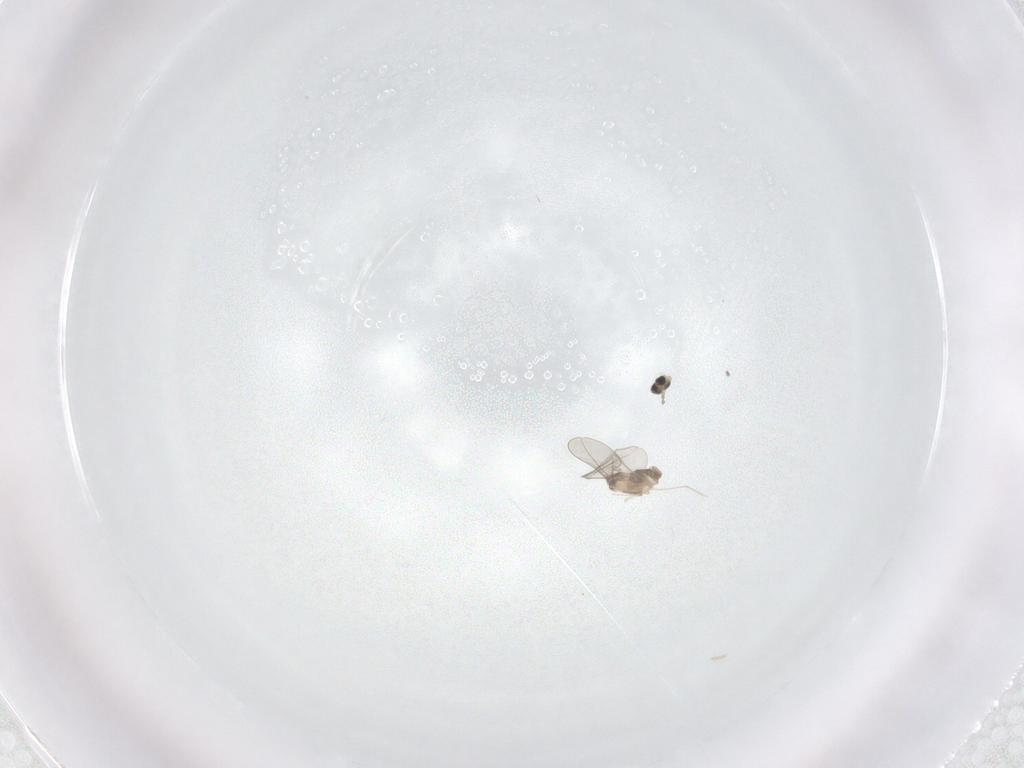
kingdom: Animalia
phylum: Arthropoda
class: Insecta
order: Diptera
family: Cecidomyiidae
